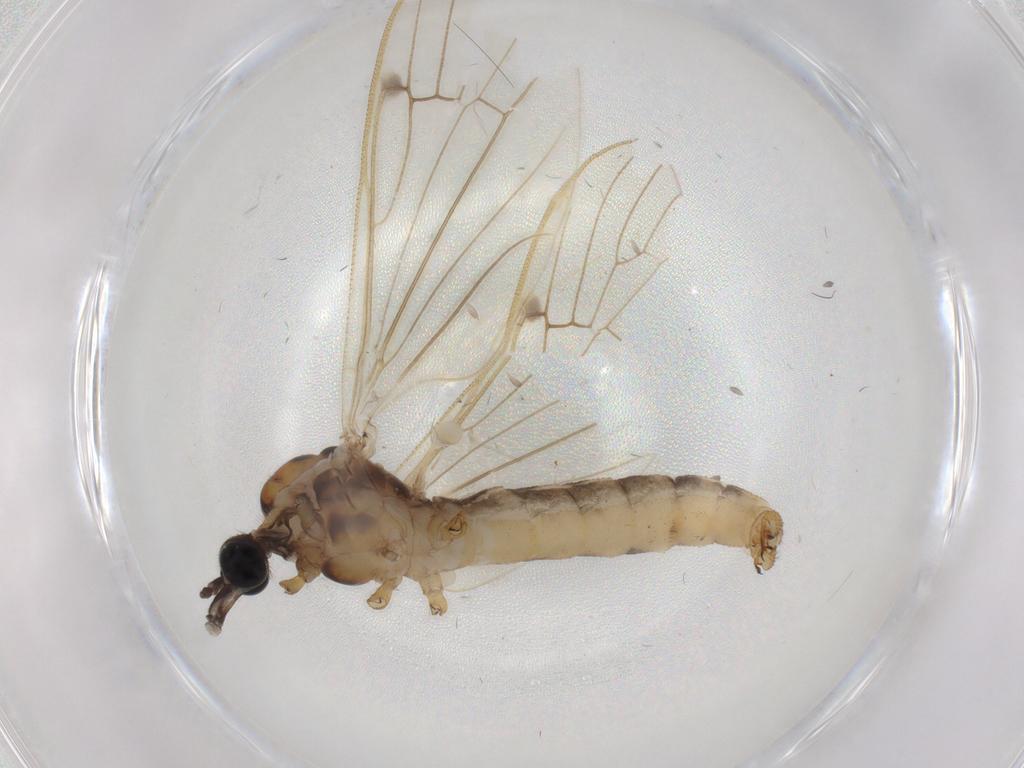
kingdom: Animalia
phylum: Arthropoda
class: Insecta
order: Diptera
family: Phoridae
